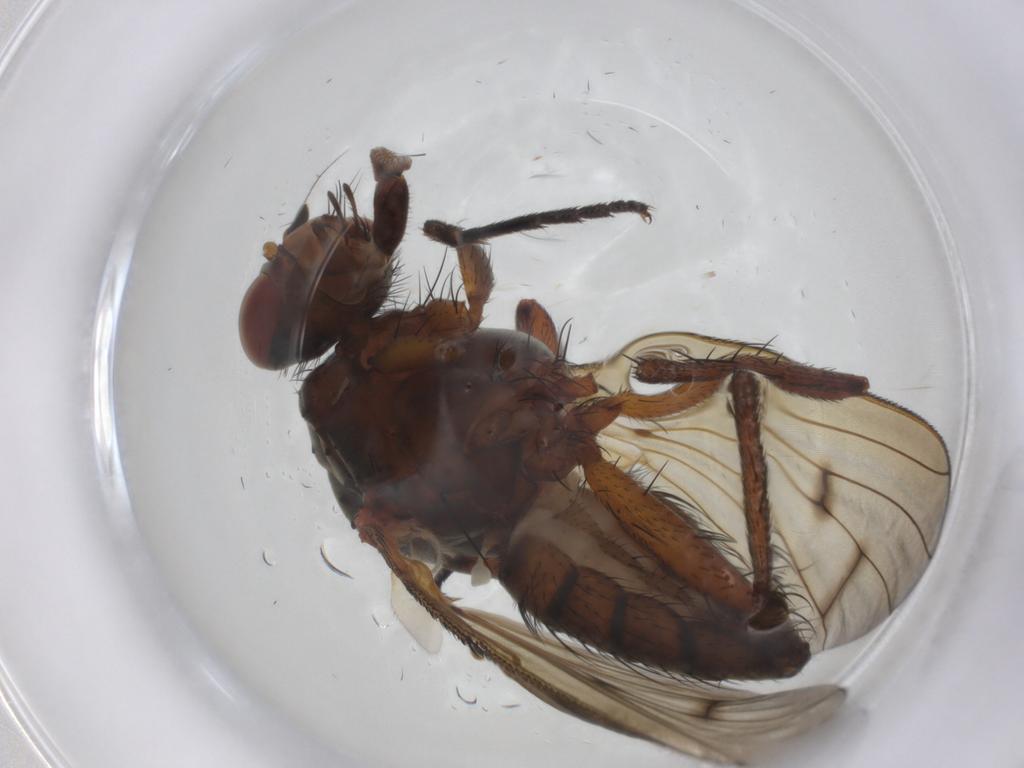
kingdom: Animalia
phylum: Arthropoda
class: Insecta
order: Diptera
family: Anthomyiidae
